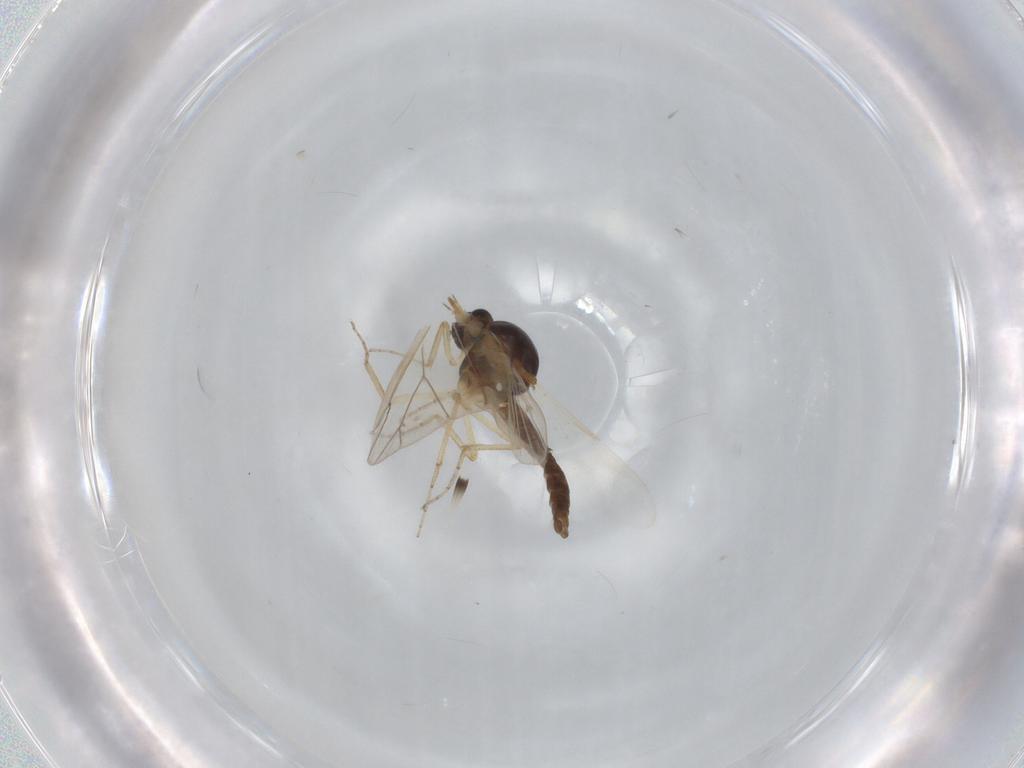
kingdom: Animalia
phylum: Arthropoda
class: Insecta
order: Diptera
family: Ceratopogonidae
